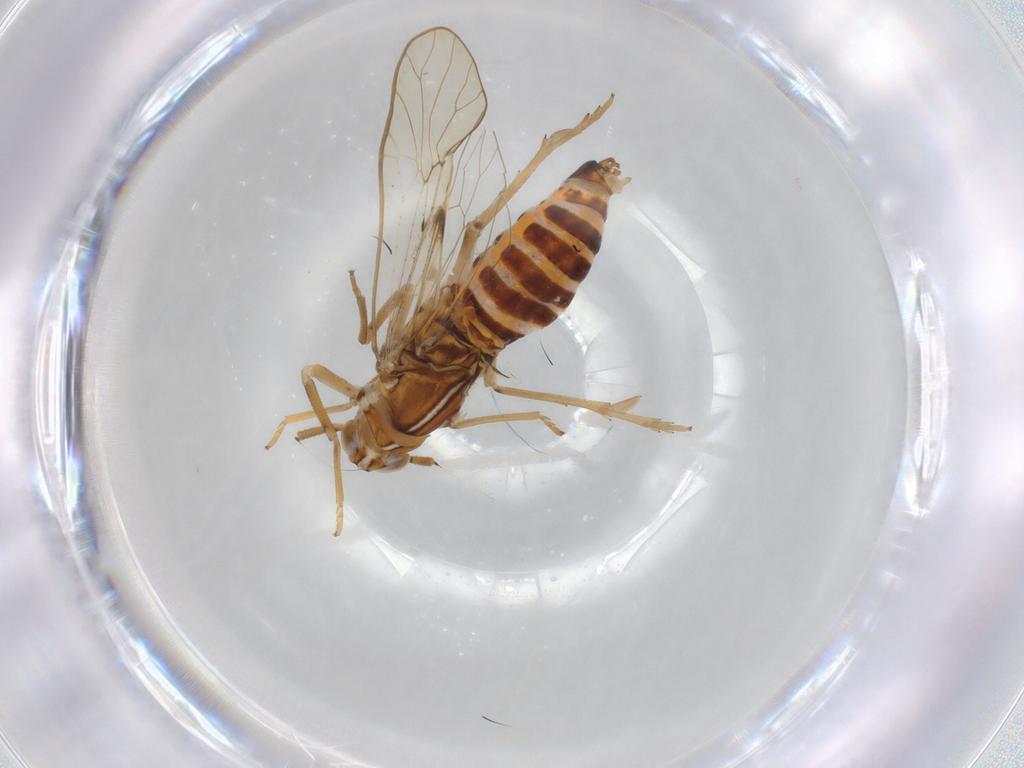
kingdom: Animalia
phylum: Arthropoda
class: Insecta
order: Hemiptera
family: Delphacidae
